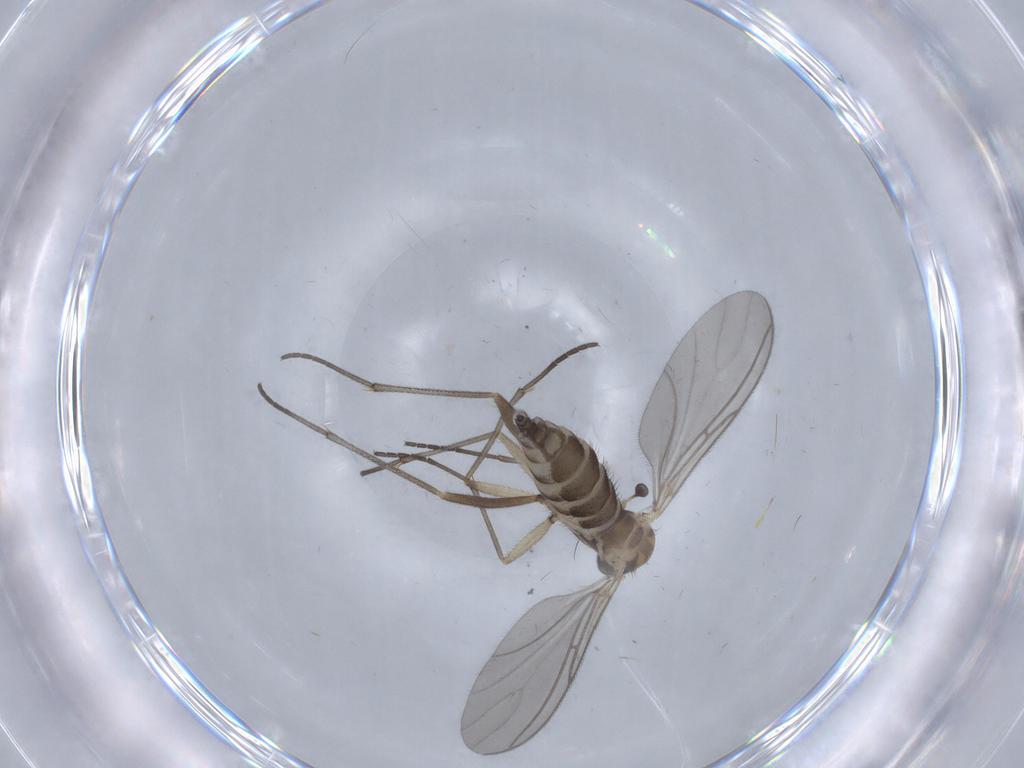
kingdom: Animalia
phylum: Arthropoda
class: Insecta
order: Diptera
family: Sciaridae
